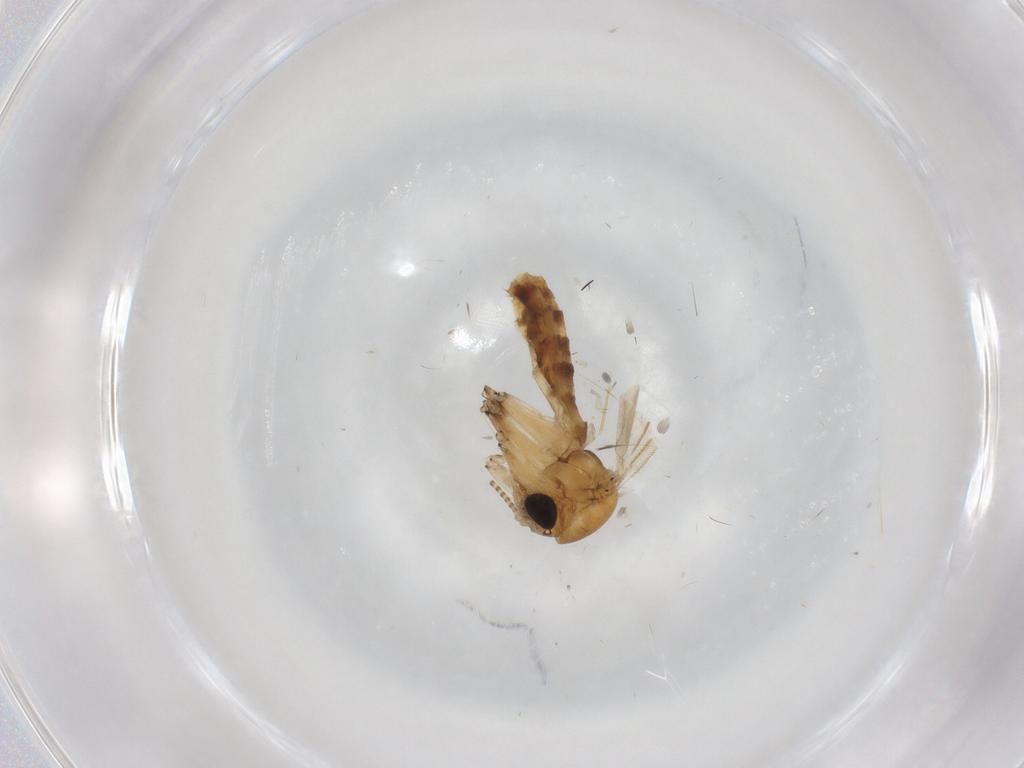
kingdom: Animalia
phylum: Arthropoda
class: Insecta
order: Diptera
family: Mycetophilidae
